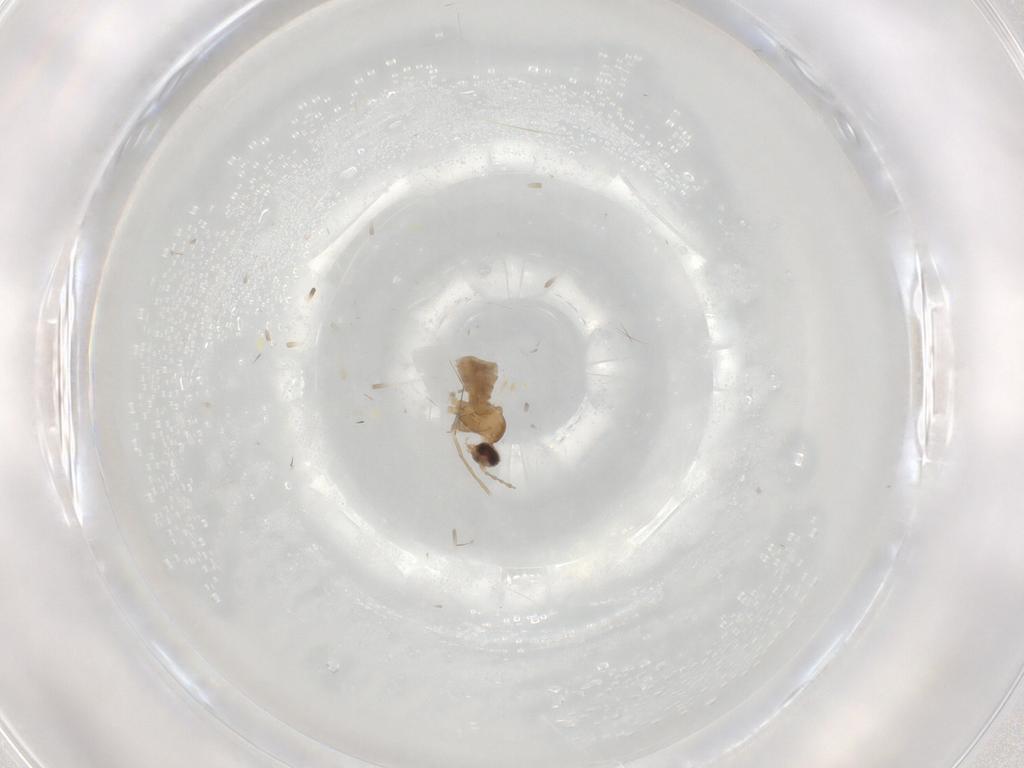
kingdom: Animalia
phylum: Arthropoda
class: Insecta
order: Diptera
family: Cecidomyiidae
